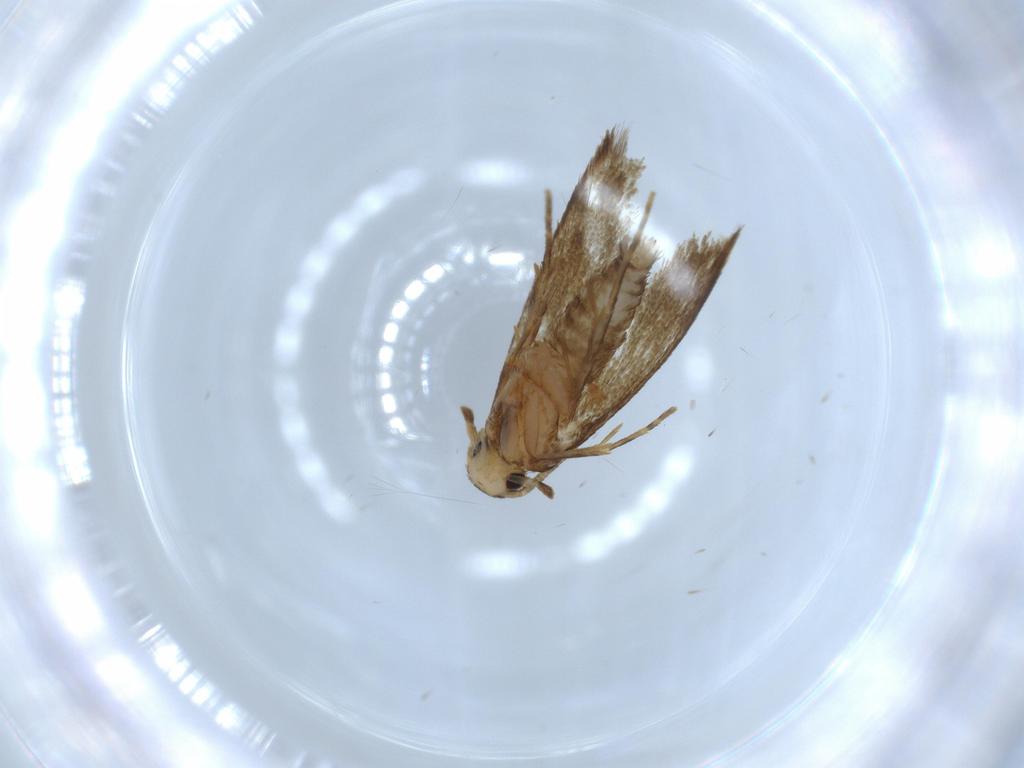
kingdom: Animalia
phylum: Arthropoda
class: Insecta
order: Lepidoptera
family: Tineidae
